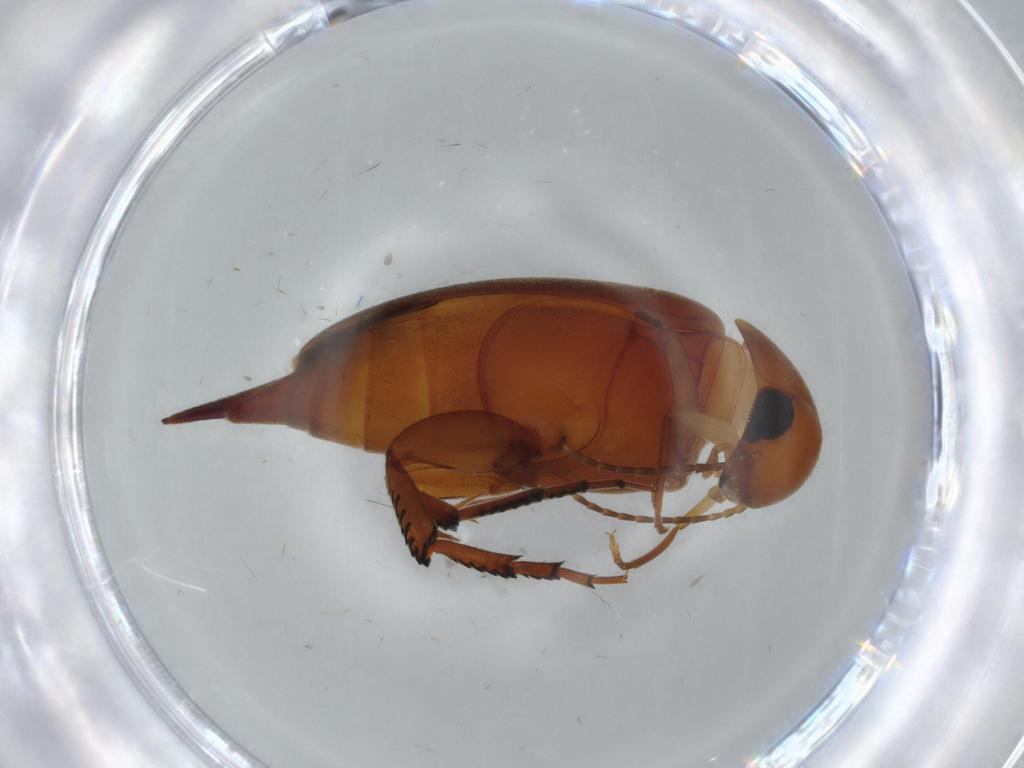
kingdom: Animalia
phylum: Arthropoda
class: Insecta
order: Coleoptera
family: Mordellidae
